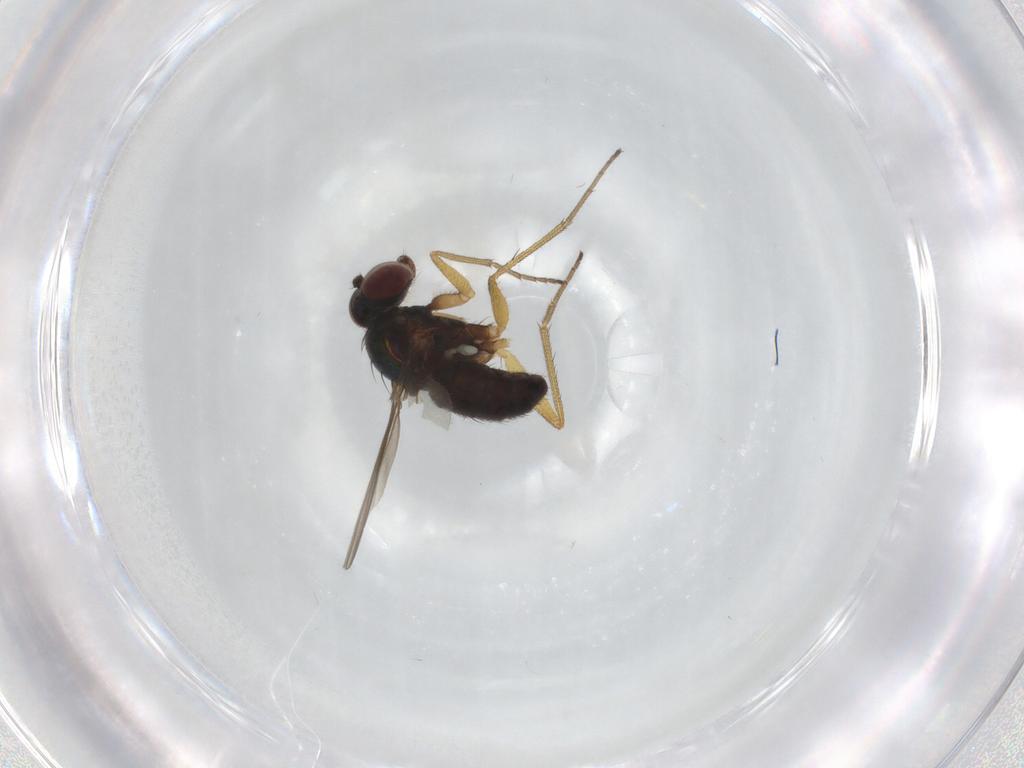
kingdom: Animalia
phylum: Arthropoda
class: Insecta
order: Diptera
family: Dolichopodidae
